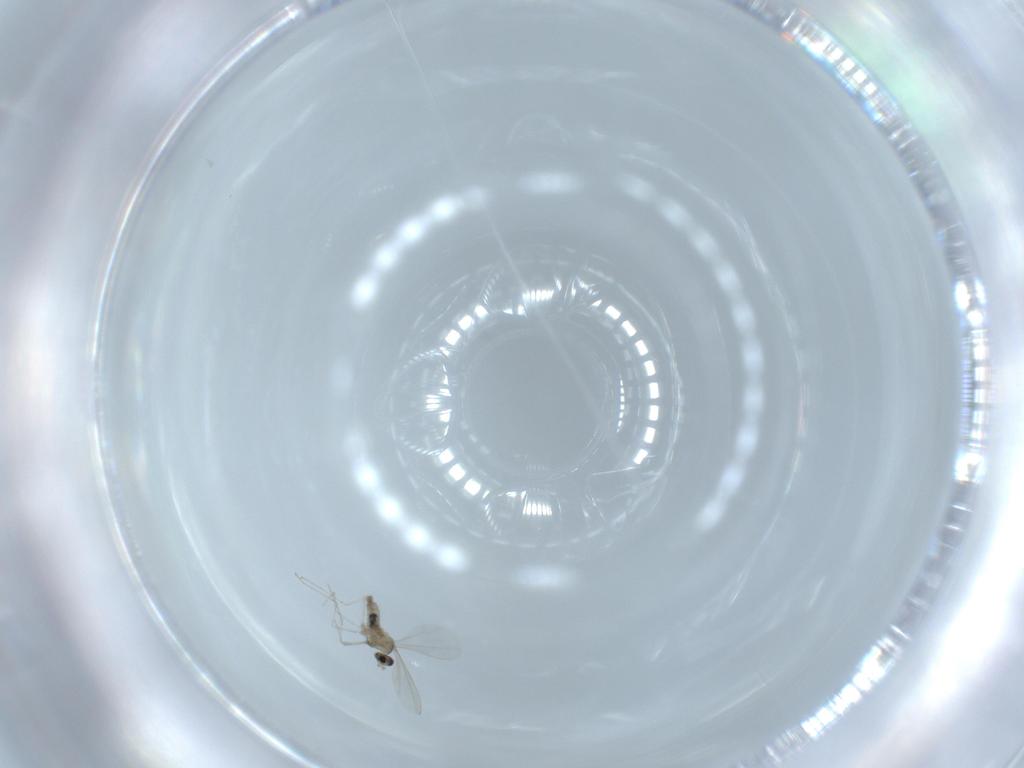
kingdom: Animalia
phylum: Arthropoda
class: Insecta
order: Diptera
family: Cecidomyiidae
